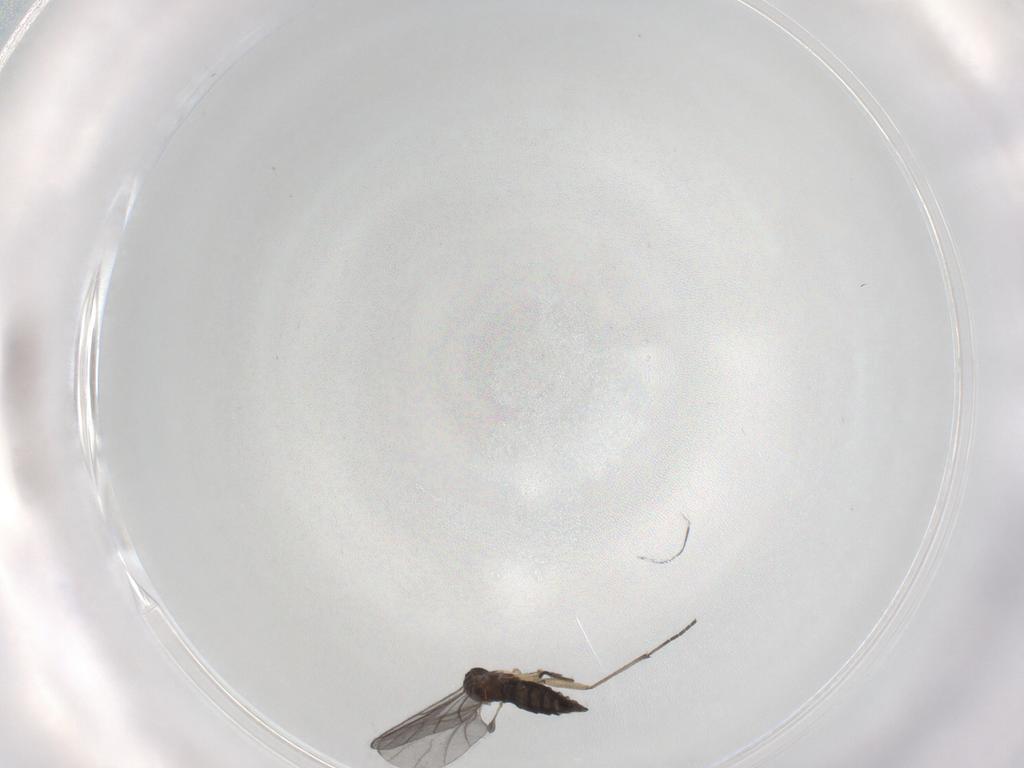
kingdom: Animalia
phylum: Arthropoda
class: Insecta
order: Diptera
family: Sciaridae
